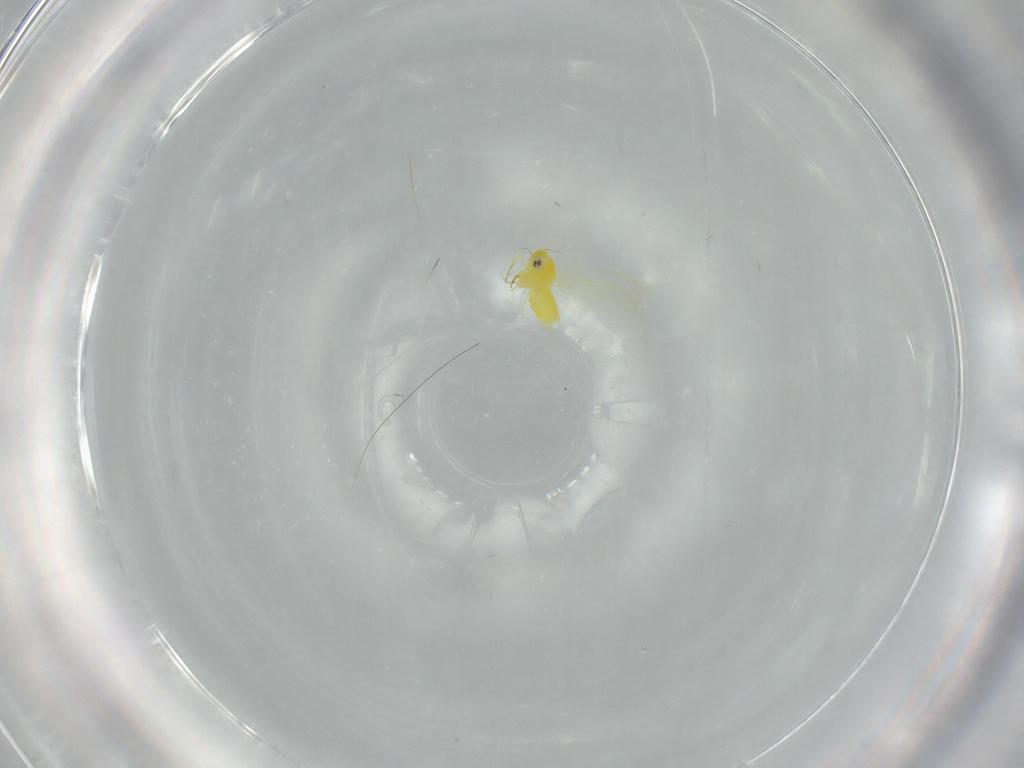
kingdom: Animalia
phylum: Arthropoda
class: Insecta
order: Hemiptera
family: Aleyrodidae
